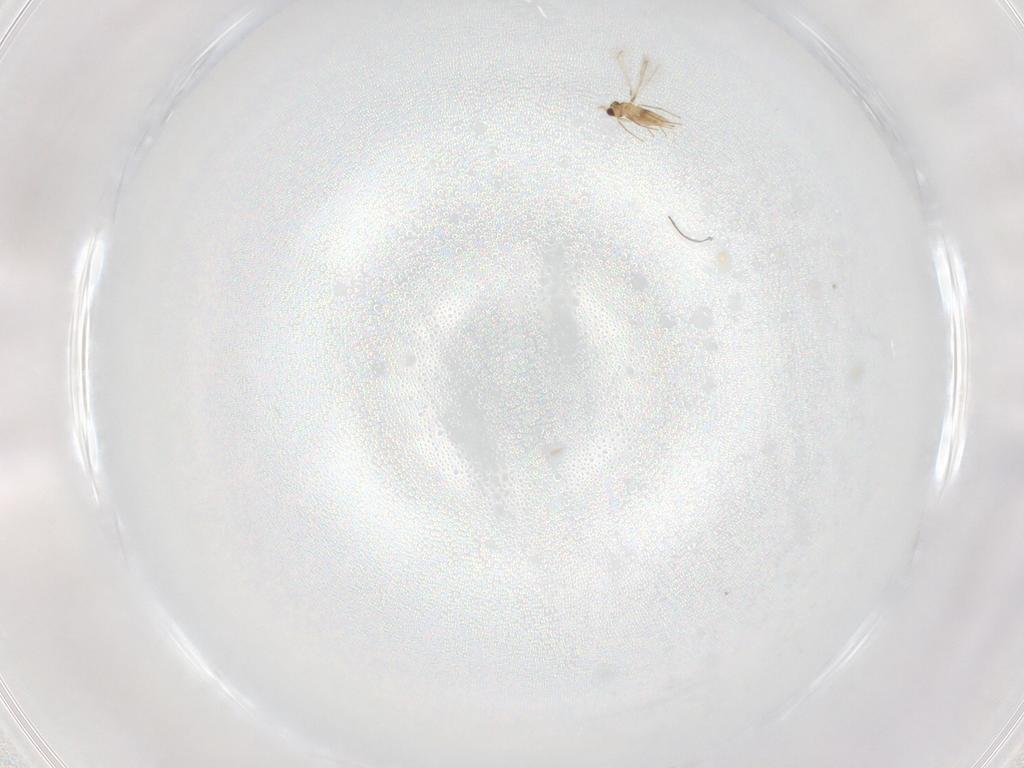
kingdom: Animalia
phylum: Arthropoda
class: Insecta
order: Hymenoptera
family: Mymaridae
